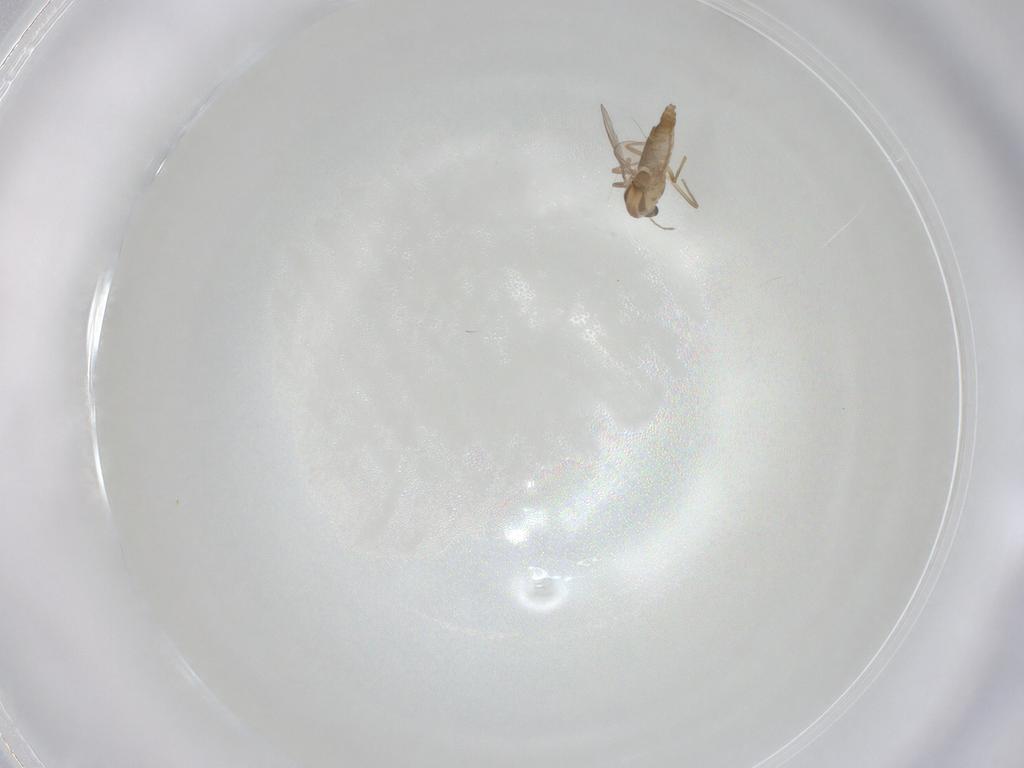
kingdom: Animalia
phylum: Arthropoda
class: Insecta
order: Diptera
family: Chironomidae
